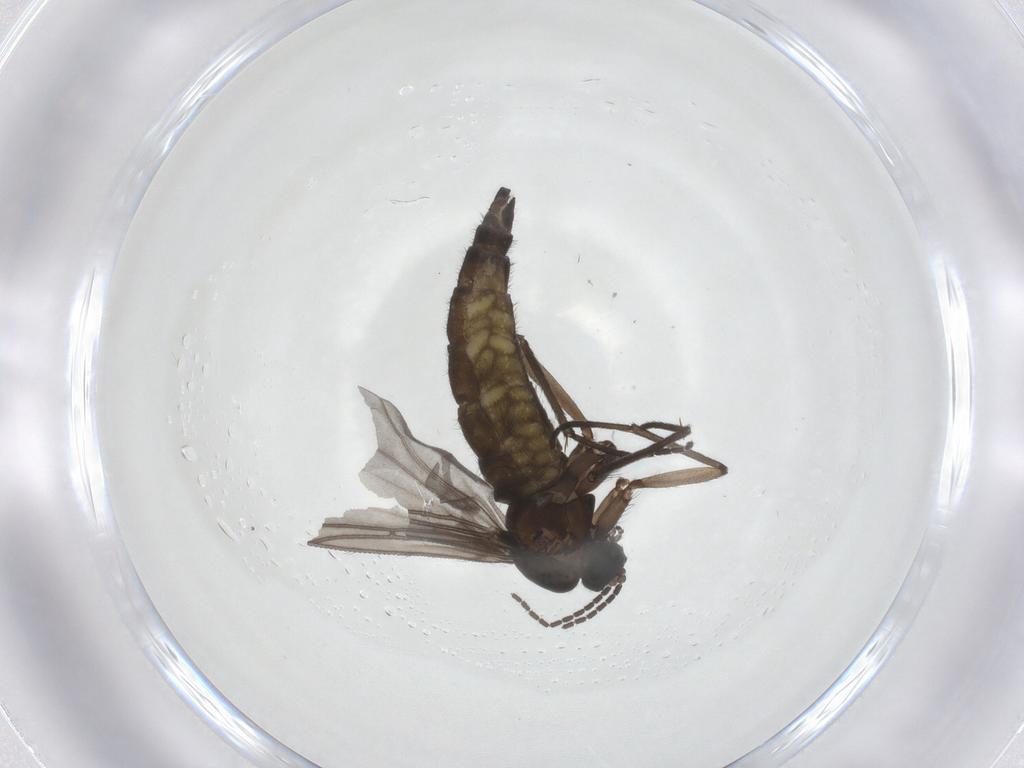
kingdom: Animalia
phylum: Arthropoda
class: Insecta
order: Diptera
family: Sciaridae
